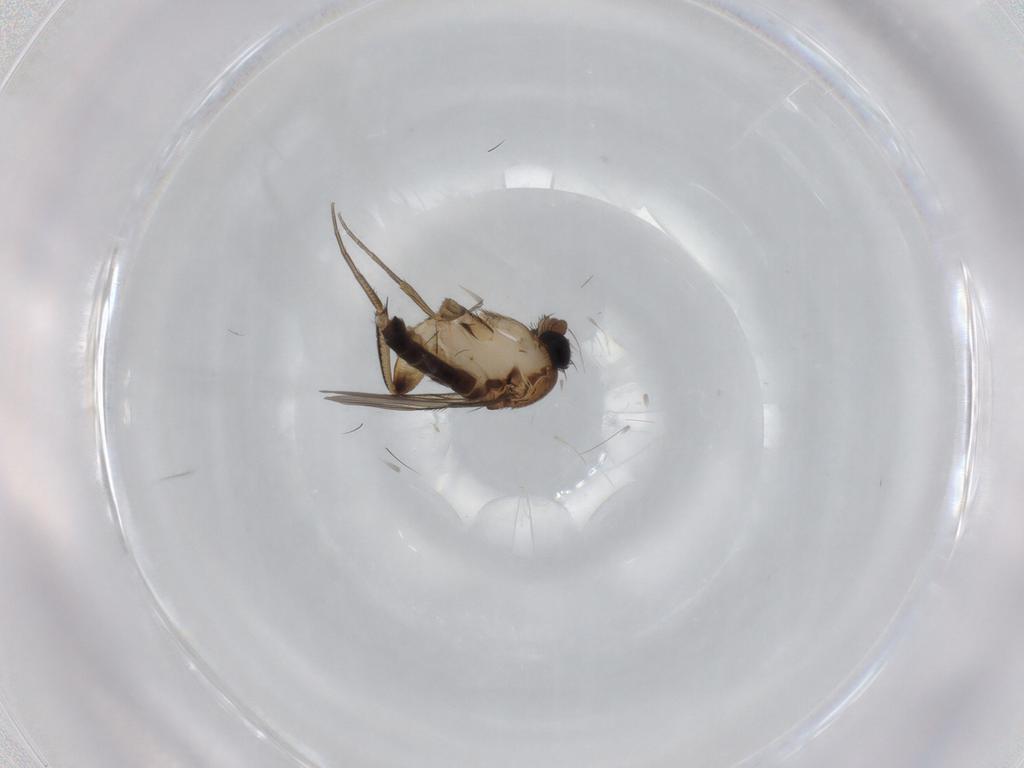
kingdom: Animalia
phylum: Arthropoda
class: Insecta
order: Diptera
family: Phoridae
